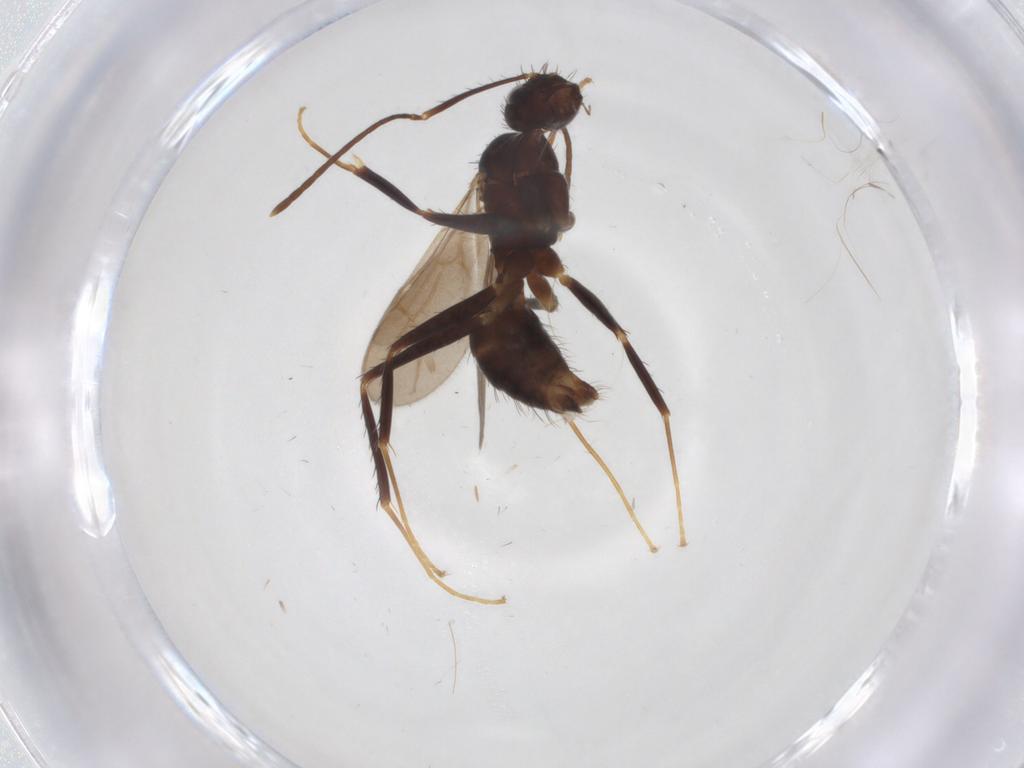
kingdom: Animalia
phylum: Arthropoda
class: Insecta
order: Hymenoptera
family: Formicidae
